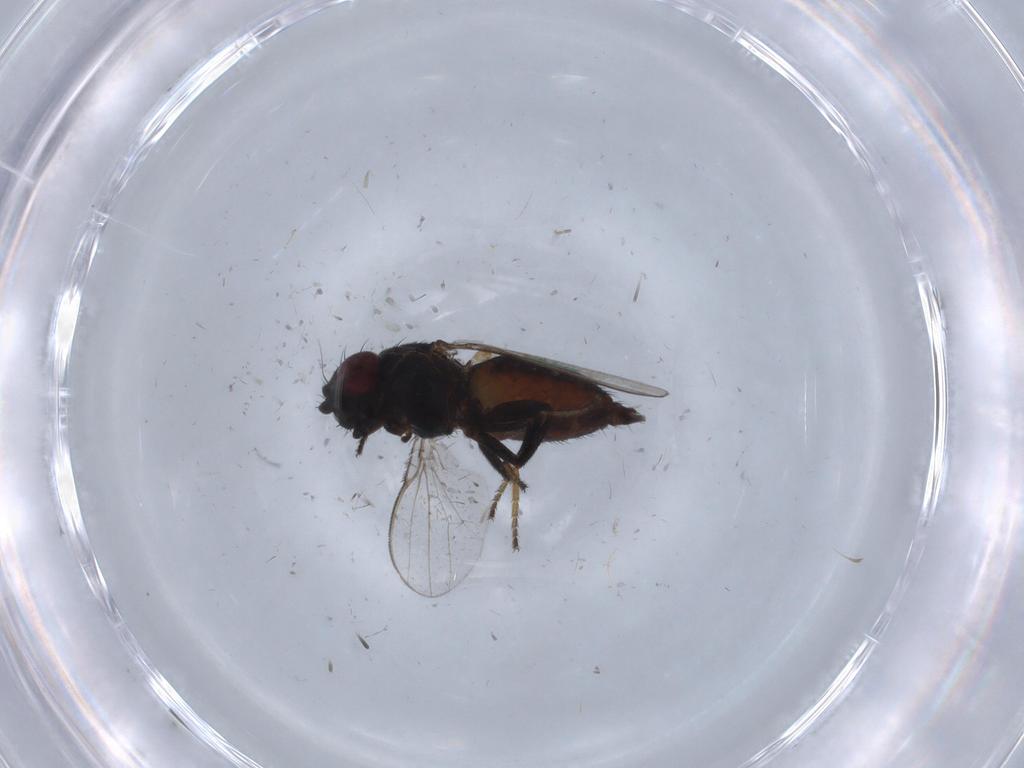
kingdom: Animalia
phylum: Arthropoda
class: Insecta
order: Diptera
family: Milichiidae
